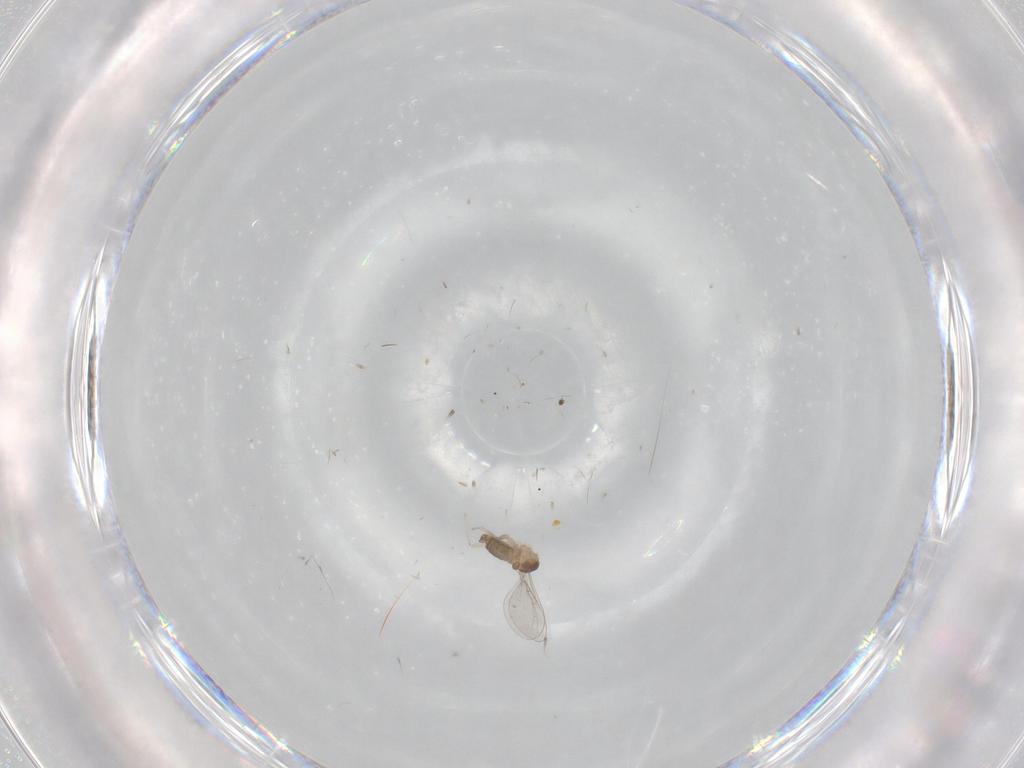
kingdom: Animalia
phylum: Arthropoda
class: Insecta
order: Diptera
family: Cecidomyiidae
